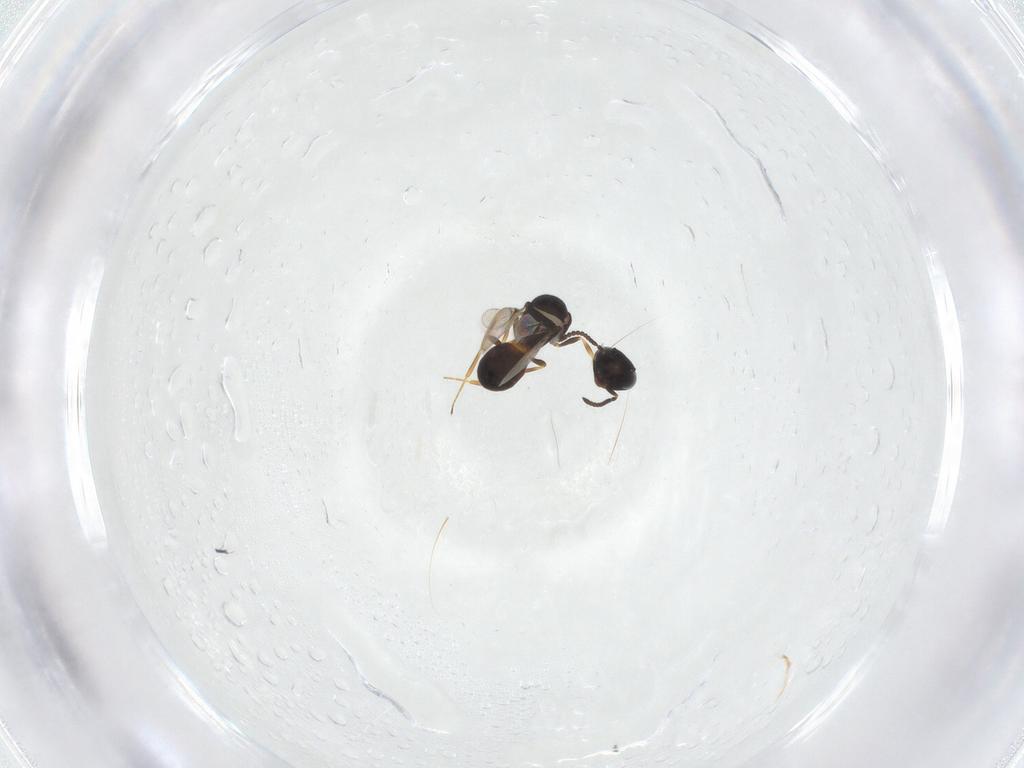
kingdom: Animalia
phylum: Arthropoda
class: Arachnida
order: Araneae
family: Pholcidae
